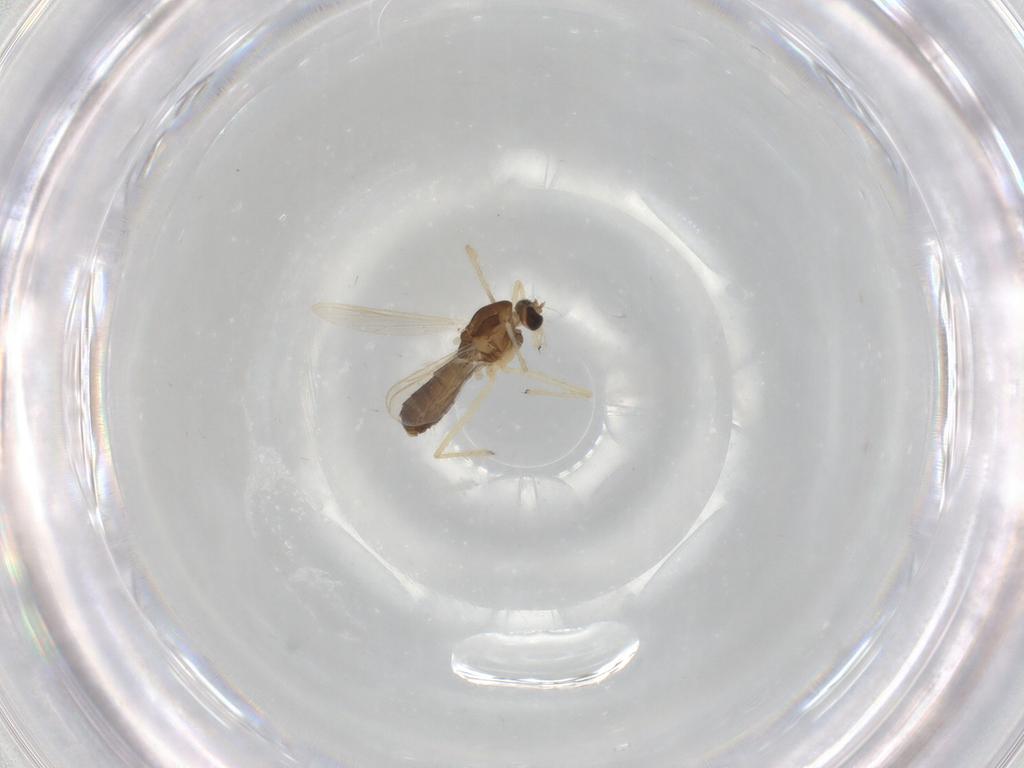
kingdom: Animalia
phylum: Arthropoda
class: Insecta
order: Diptera
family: Chironomidae
